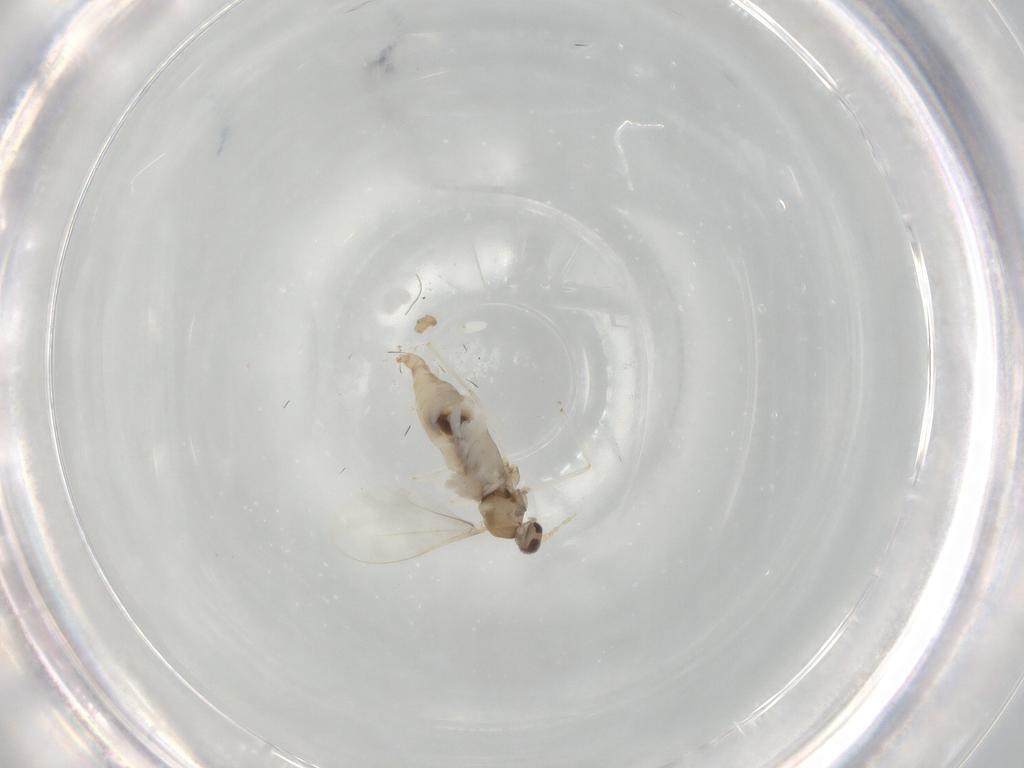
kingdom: Animalia
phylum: Arthropoda
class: Insecta
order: Diptera
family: Cecidomyiidae
